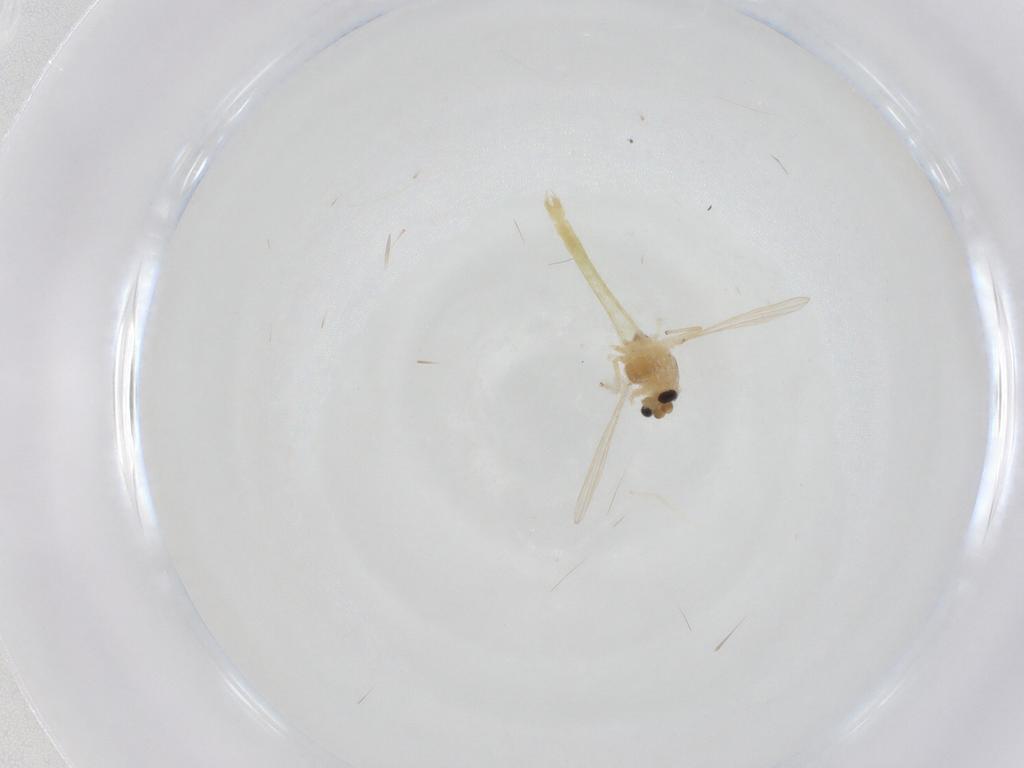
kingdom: Animalia
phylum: Arthropoda
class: Insecta
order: Diptera
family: Chironomidae
